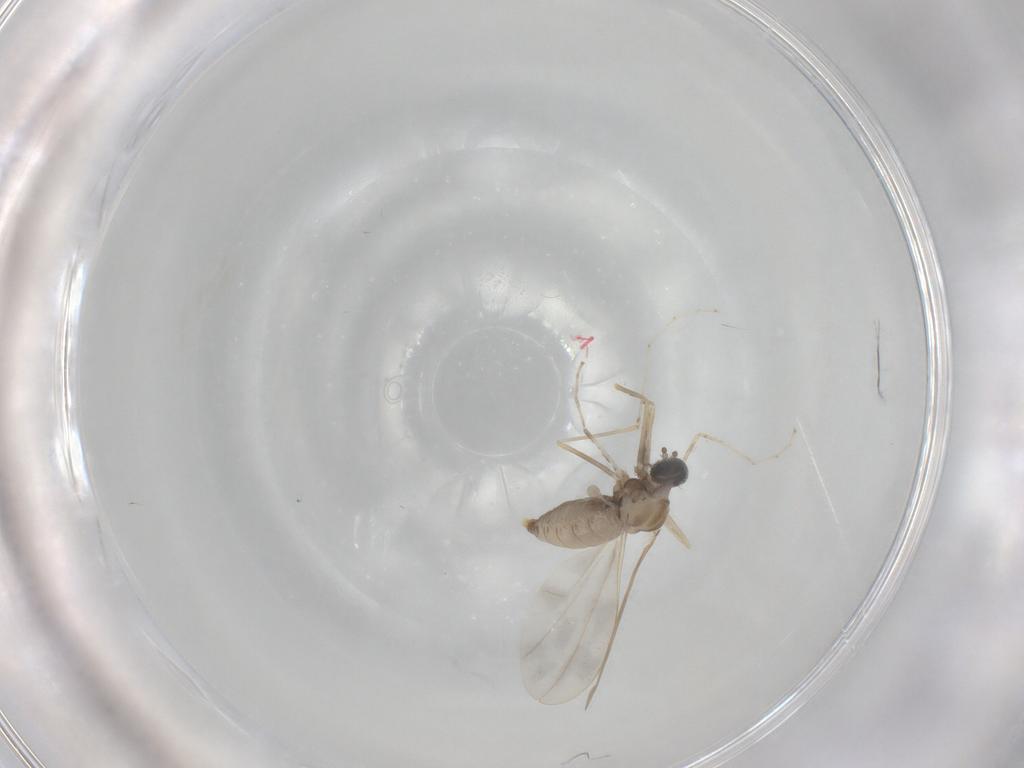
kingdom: Animalia
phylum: Arthropoda
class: Insecta
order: Diptera
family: Cecidomyiidae
